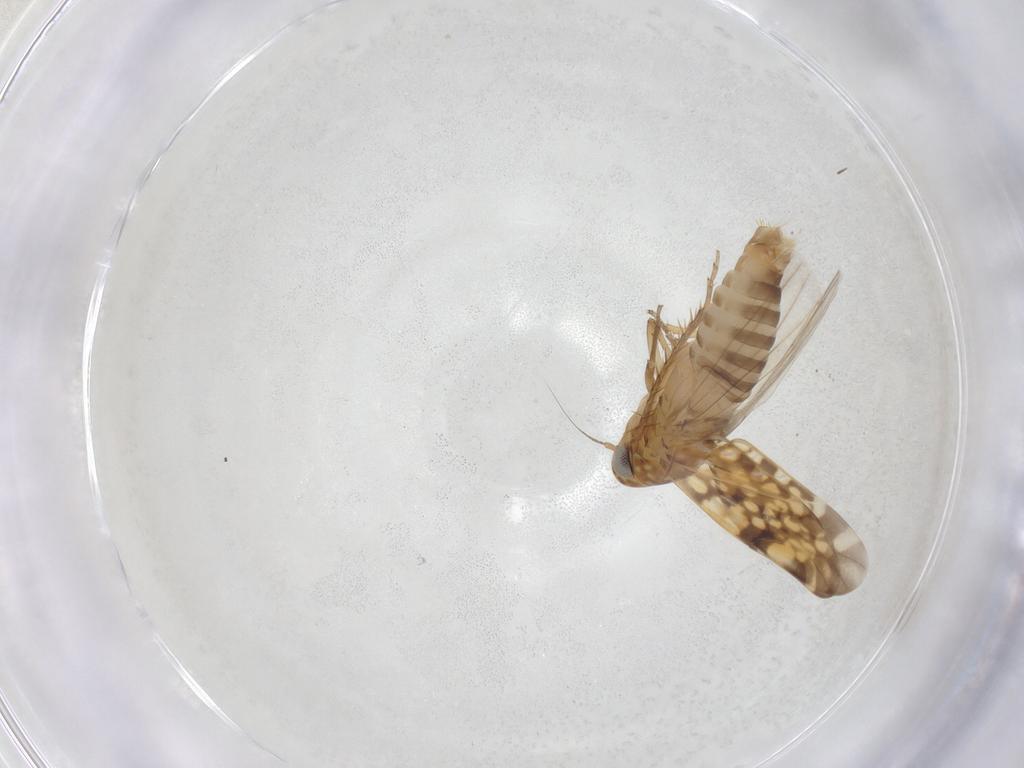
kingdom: Animalia
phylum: Arthropoda
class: Insecta
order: Hemiptera
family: Cicadellidae
